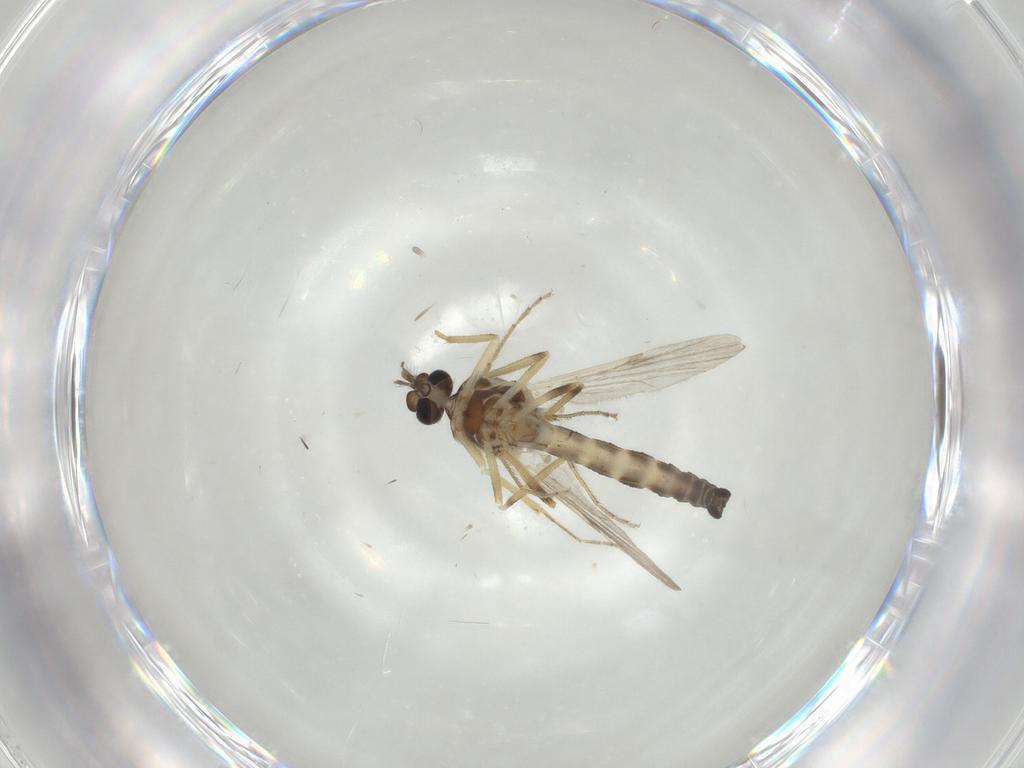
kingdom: Animalia
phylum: Arthropoda
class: Insecta
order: Diptera
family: Ceratopogonidae
